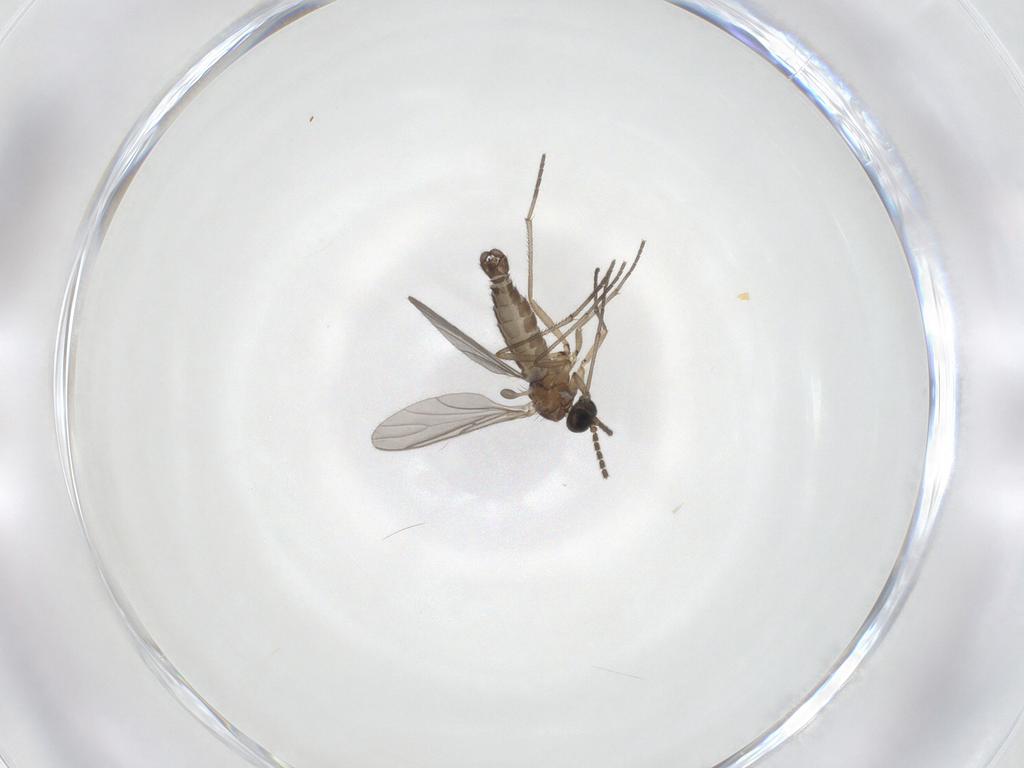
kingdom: Animalia
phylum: Arthropoda
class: Insecta
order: Diptera
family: Sciaridae
